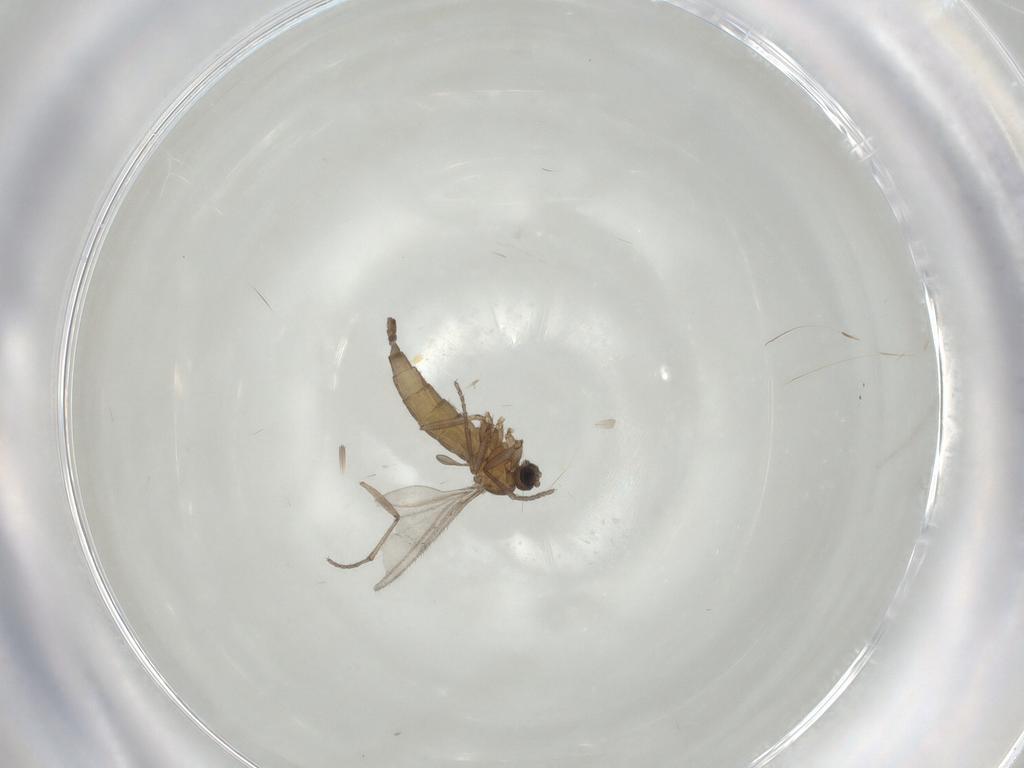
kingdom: Animalia
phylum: Arthropoda
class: Insecta
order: Diptera
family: Sciaridae
